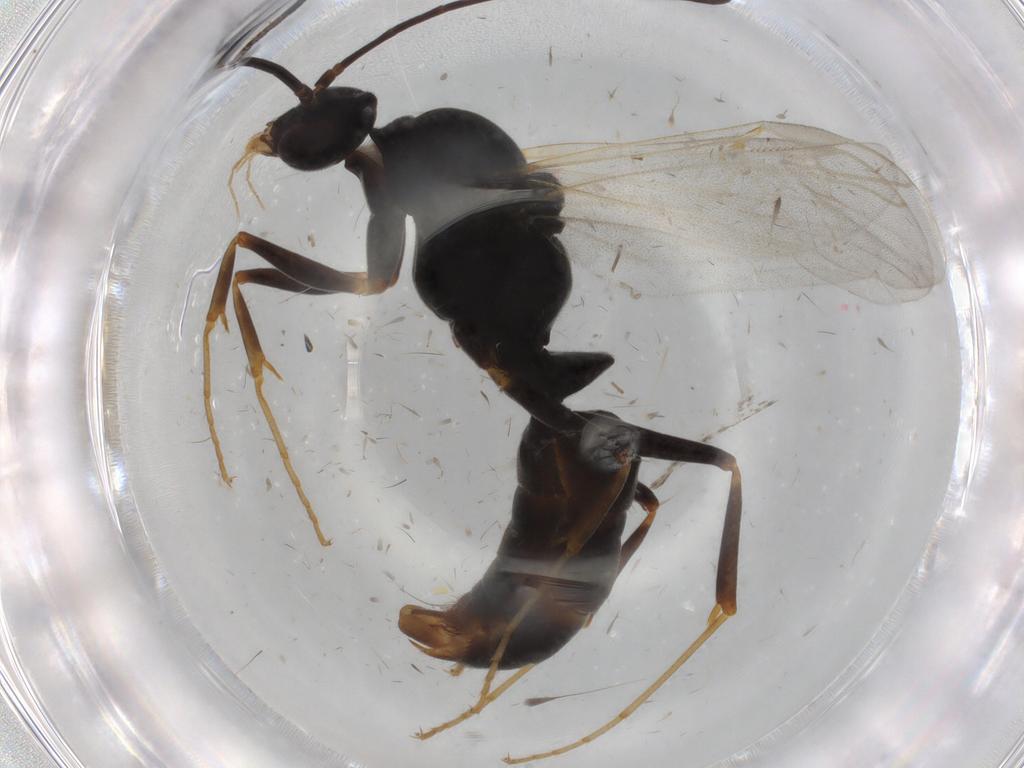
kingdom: Animalia
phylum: Arthropoda
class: Insecta
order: Hymenoptera
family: Formicidae
